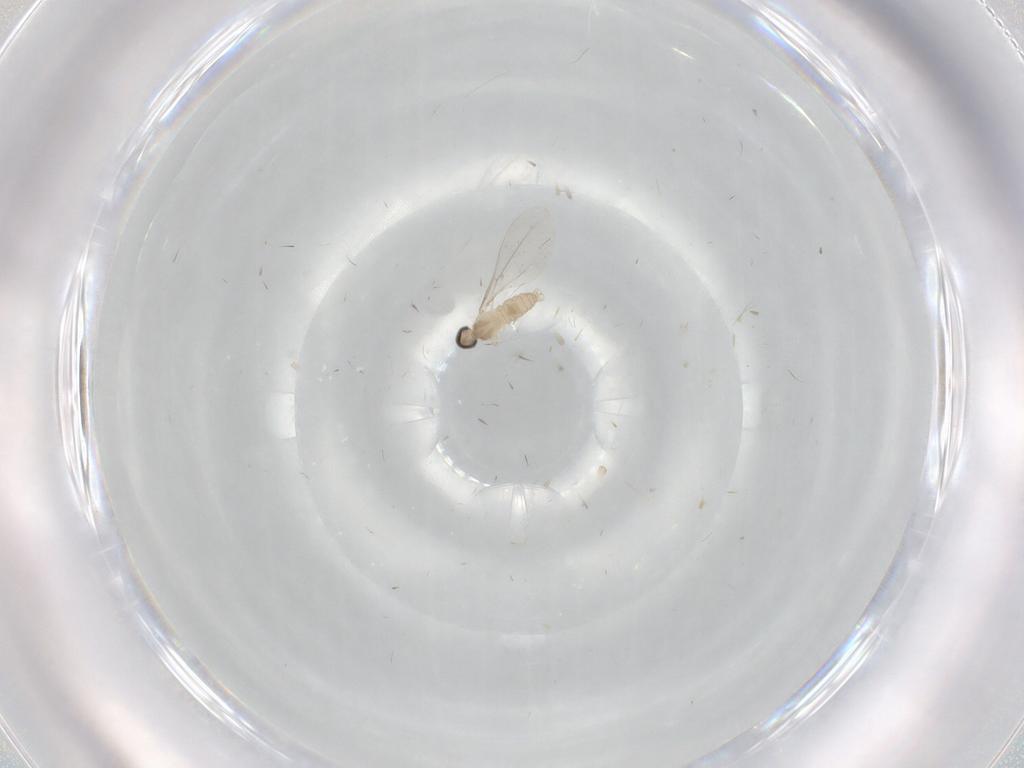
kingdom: Animalia
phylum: Arthropoda
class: Insecta
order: Diptera
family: Cecidomyiidae
